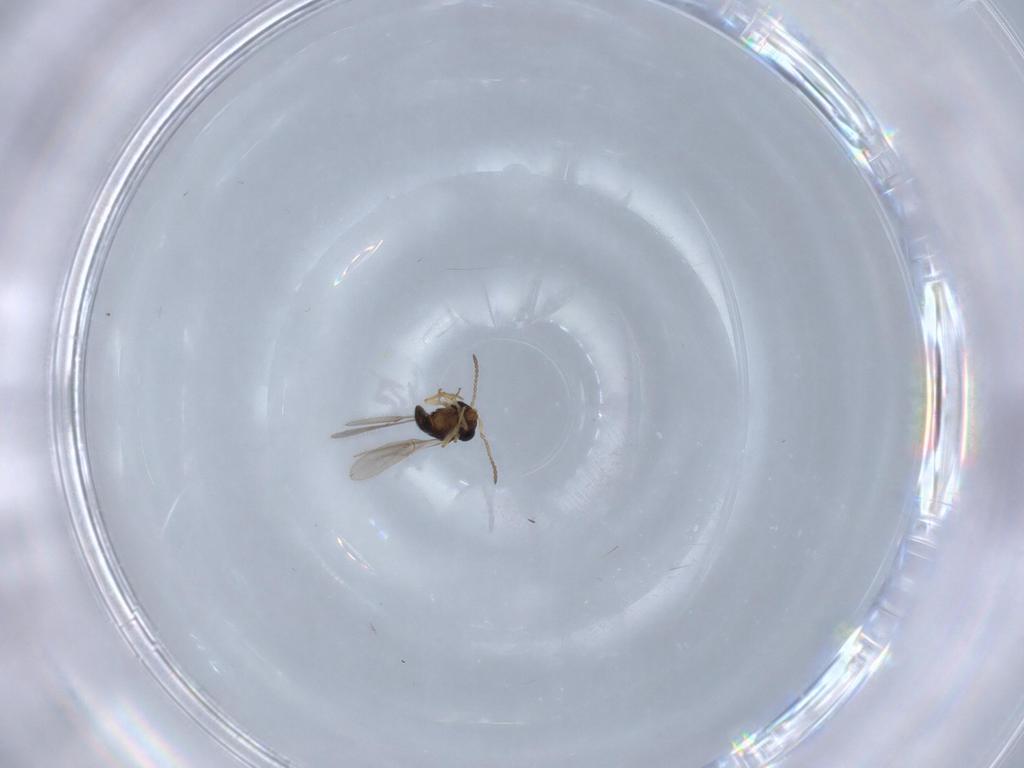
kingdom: Animalia
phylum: Arthropoda
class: Insecta
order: Hymenoptera
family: Scelionidae
